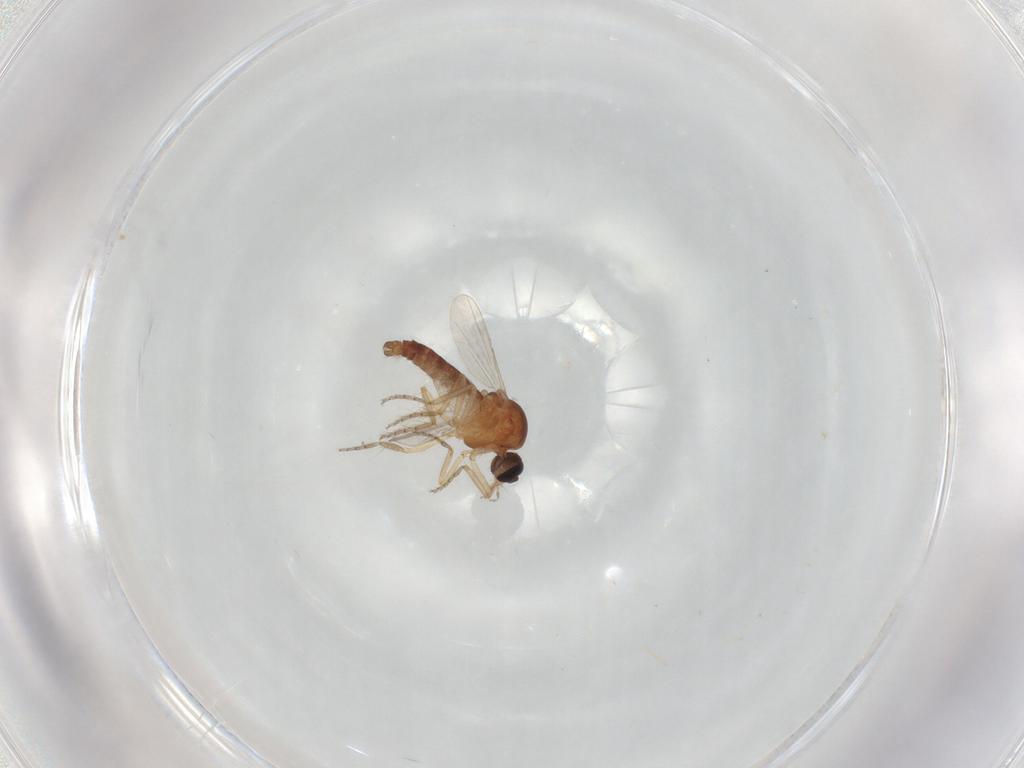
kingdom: Animalia
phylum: Arthropoda
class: Insecta
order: Diptera
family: Ceratopogonidae
